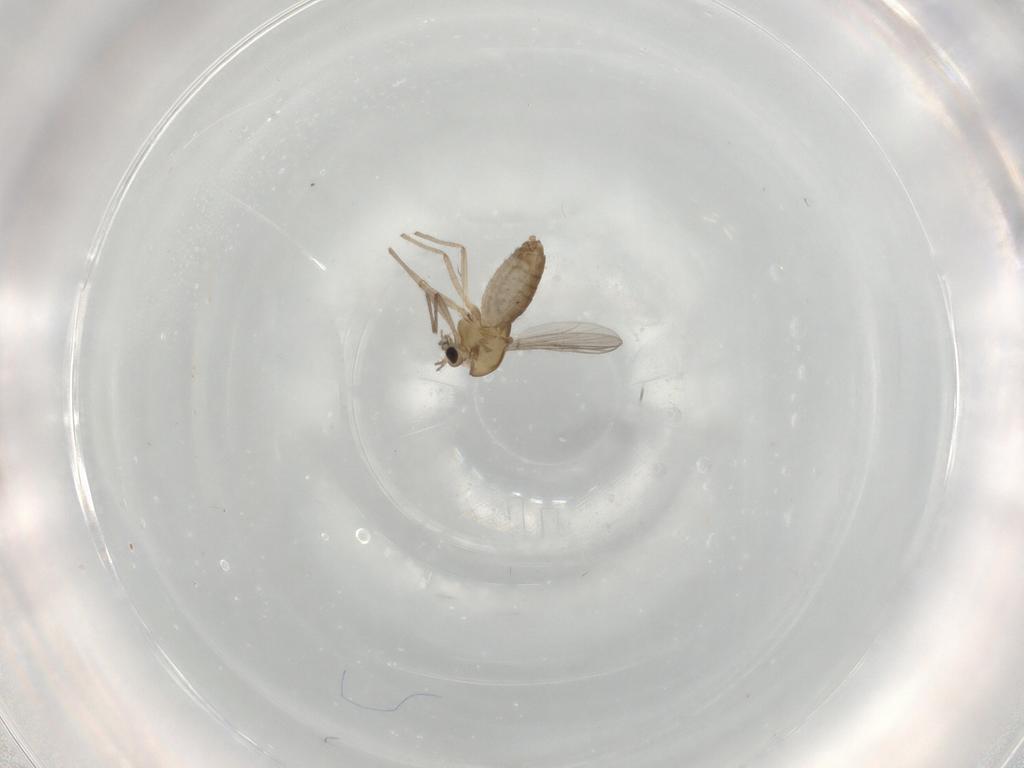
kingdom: Animalia
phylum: Arthropoda
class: Insecta
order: Diptera
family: Chironomidae
